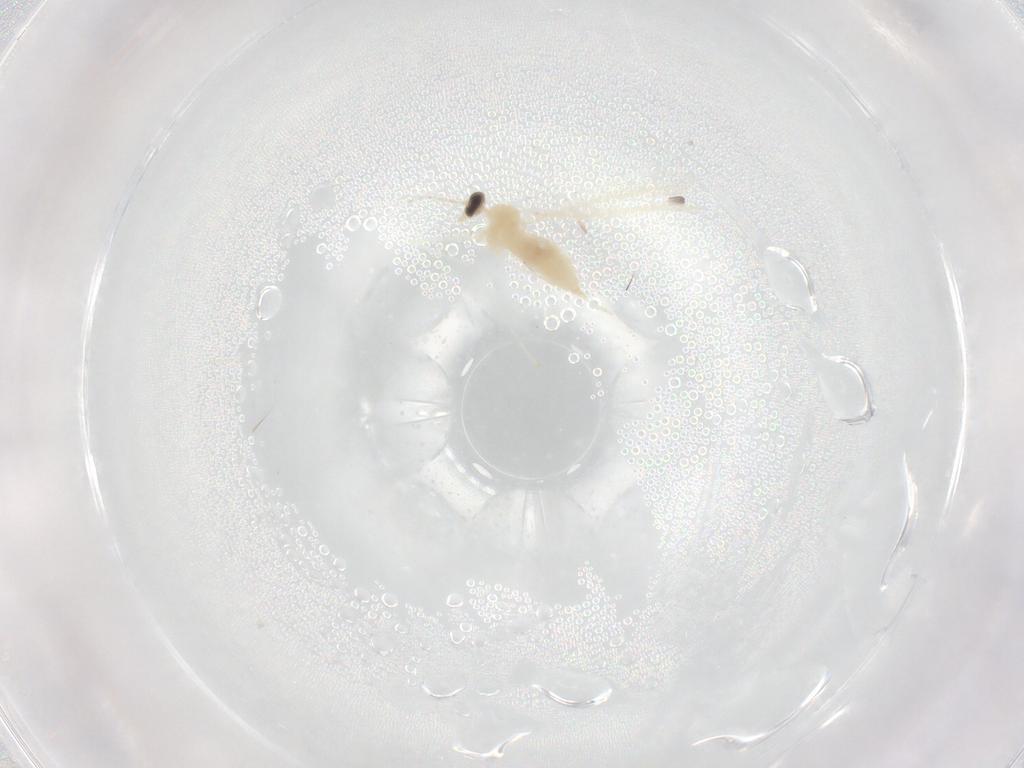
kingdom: Animalia
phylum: Arthropoda
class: Insecta
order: Diptera
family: Cecidomyiidae
